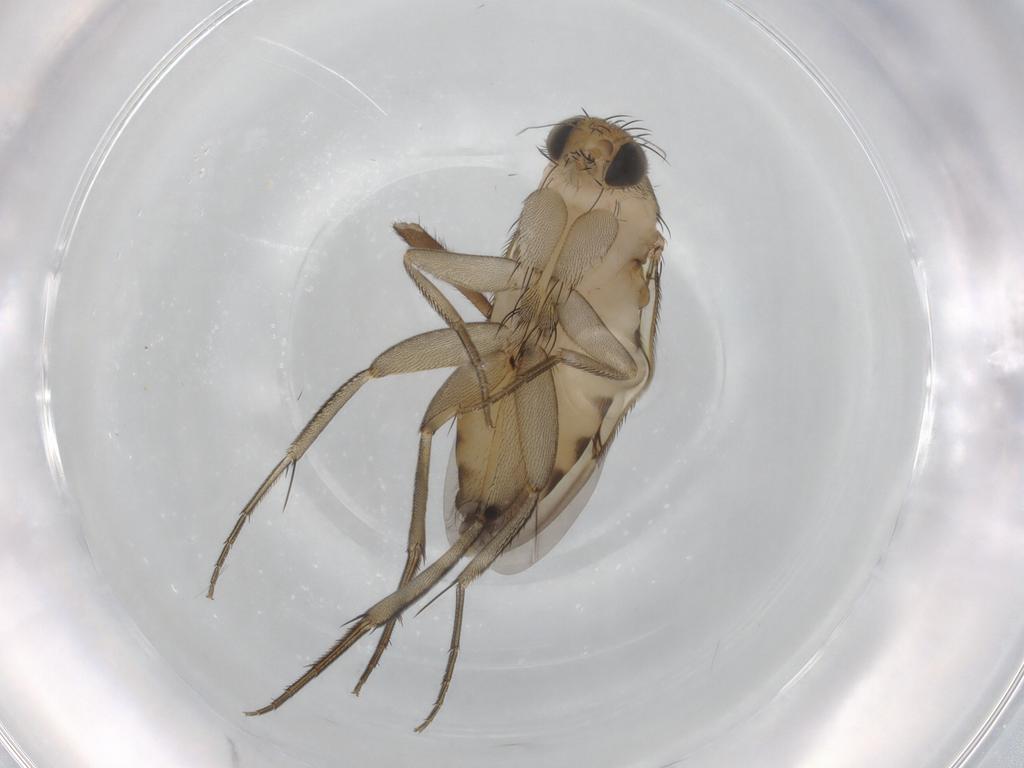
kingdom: Animalia
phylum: Arthropoda
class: Insecta
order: Diptera
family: Phoridae
